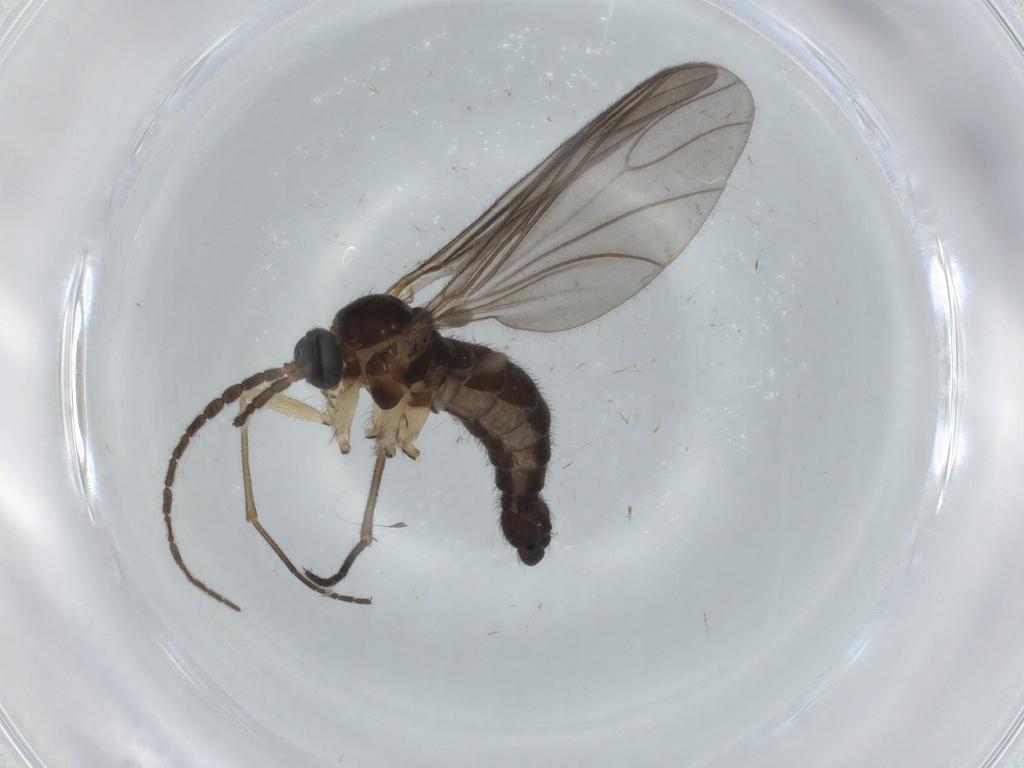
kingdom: Animalia
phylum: Arthropoda
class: Insecta
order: Diptera
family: Sciaridae
